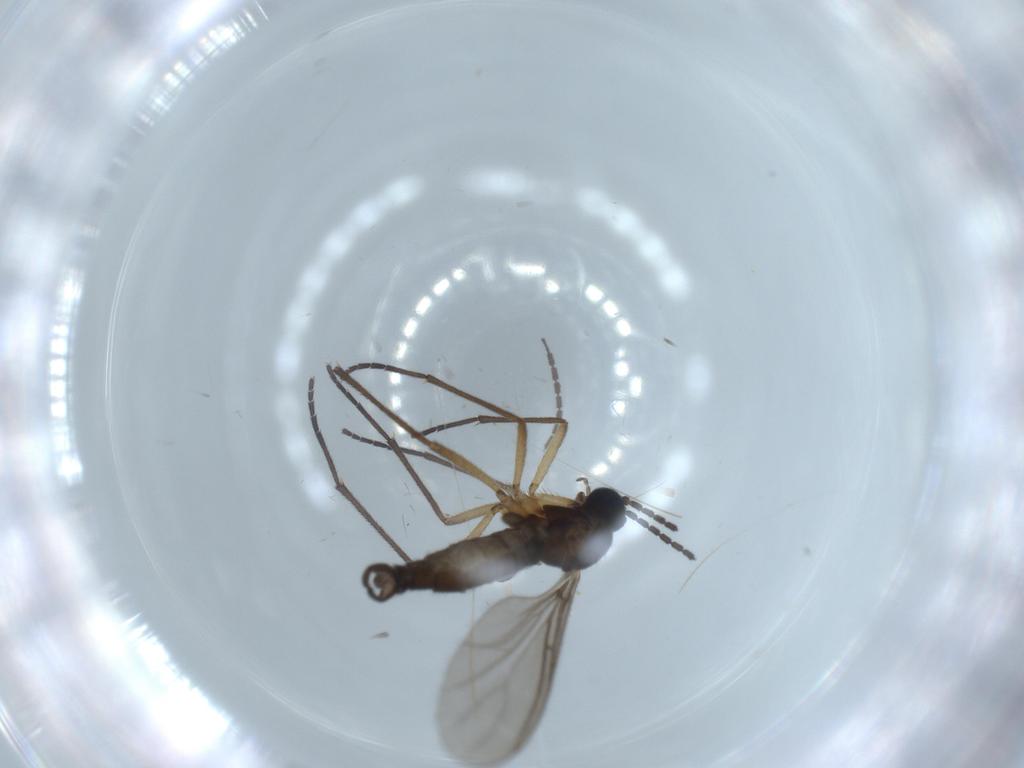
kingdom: Animalia
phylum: Arthropoda
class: Insecta
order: Diptera
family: Sciaridae
